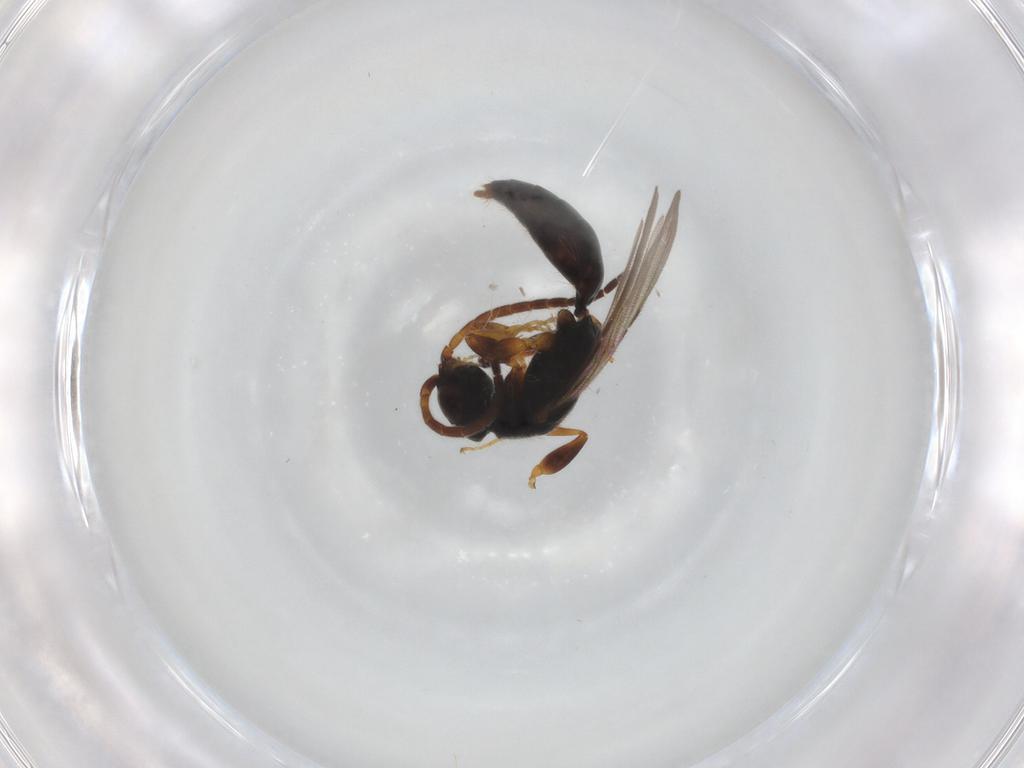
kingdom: Animalia
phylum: Arthropoda
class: Insecta
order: Hymenoptera
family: Bethylidae
